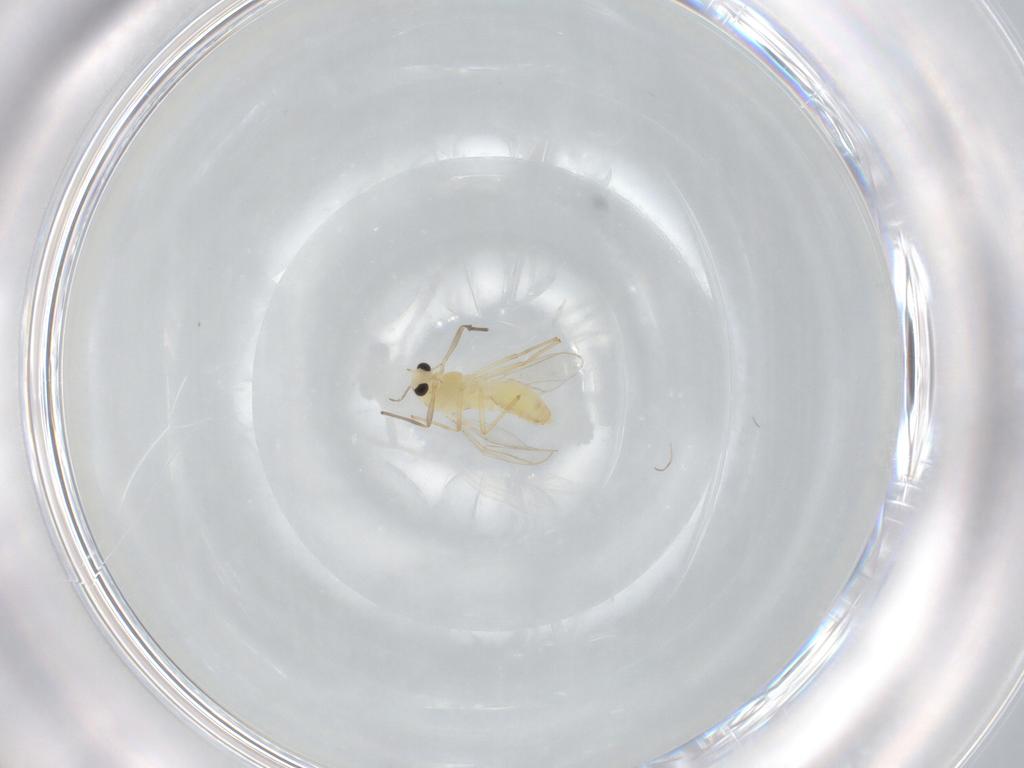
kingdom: Animalia
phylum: Arthropoda
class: Insecta
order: Diptera
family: Chironomidae
